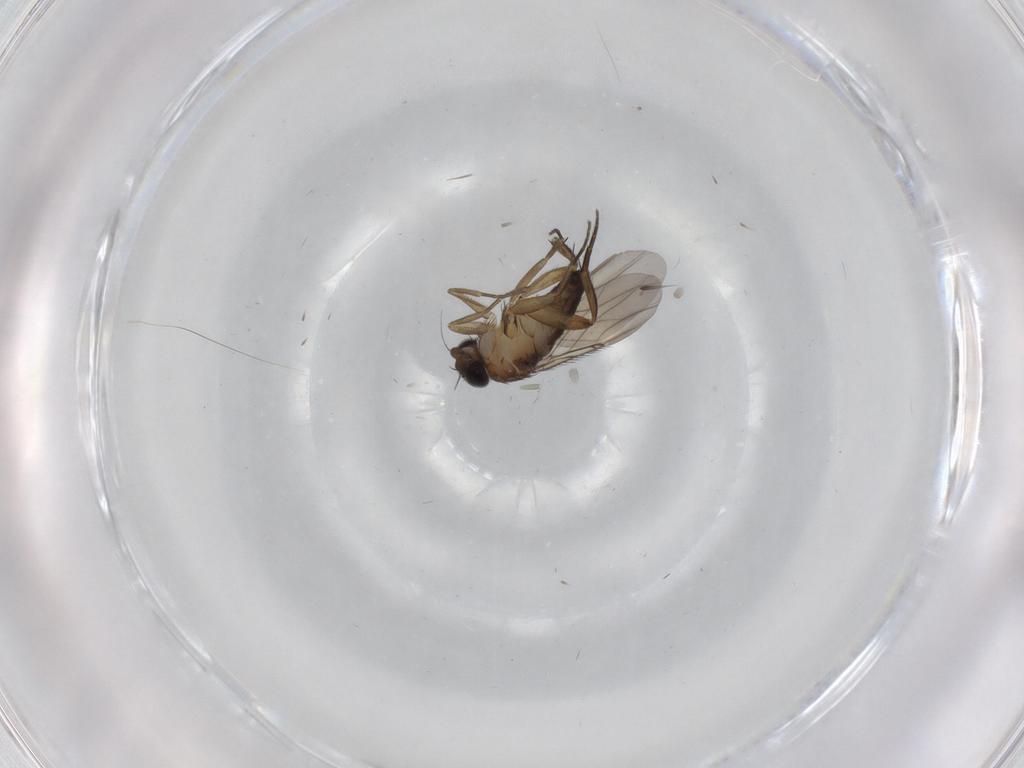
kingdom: Animalia
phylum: Arthropoda
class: Insecta
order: Diptera
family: Phoridae
